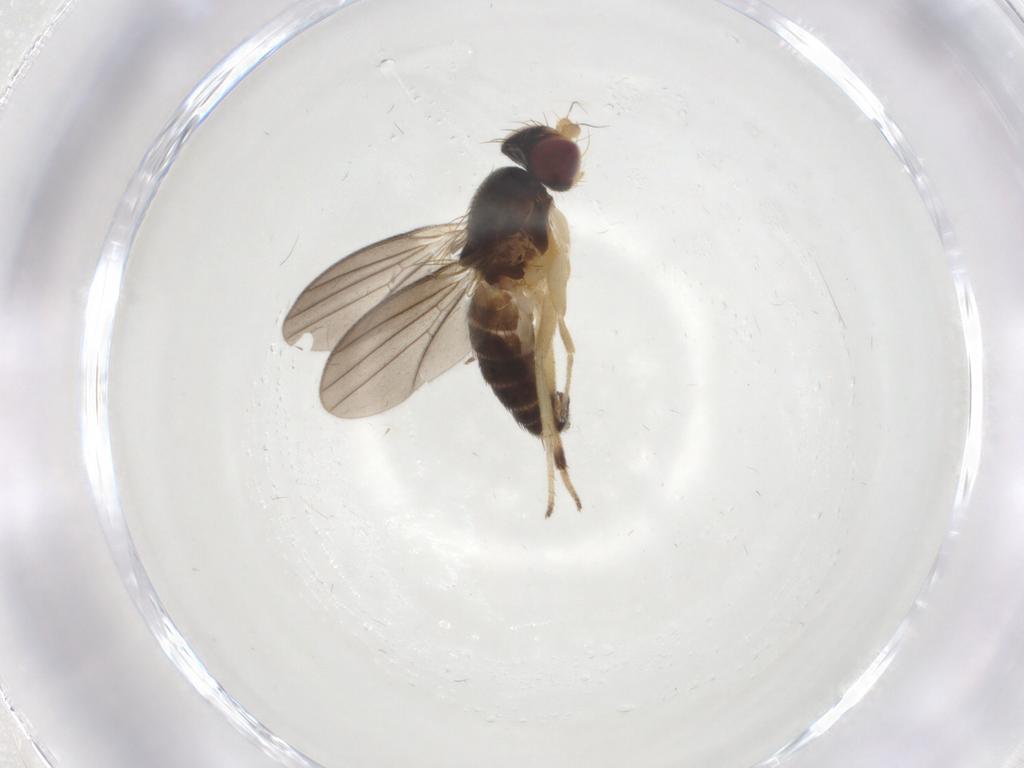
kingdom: Animalia
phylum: Arthropoda
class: Insecta
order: Diptera
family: Clusiidae
